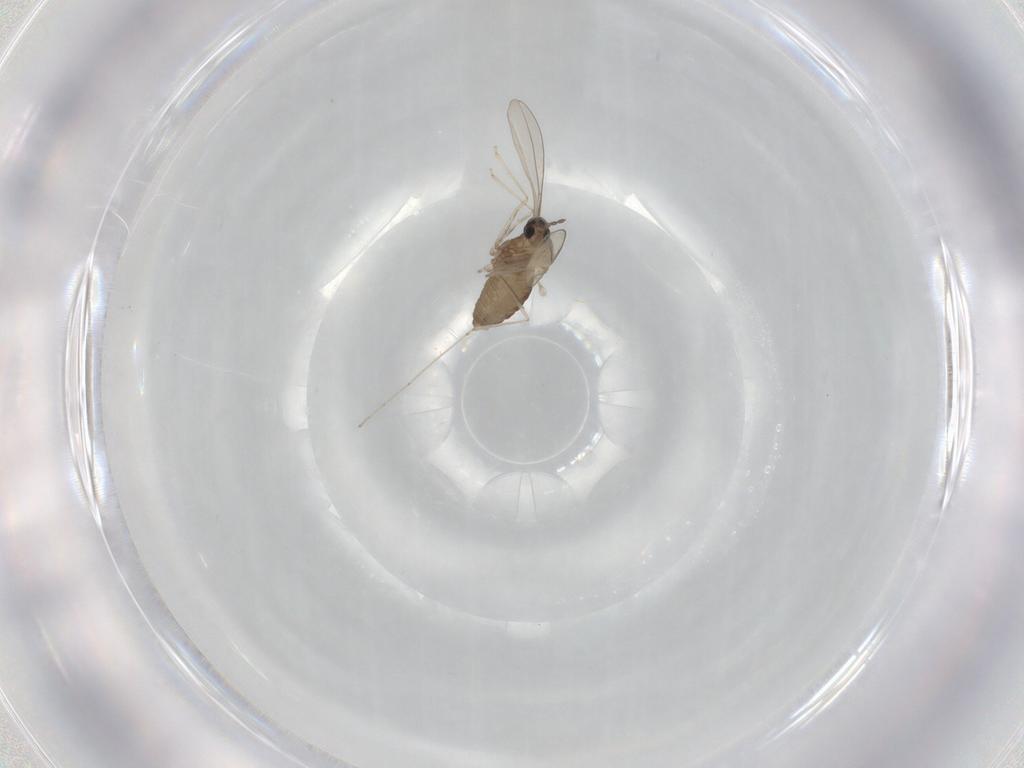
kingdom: Animalia
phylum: Arthropoda
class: Insecta
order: Diptera
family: Cecidomyiidae
